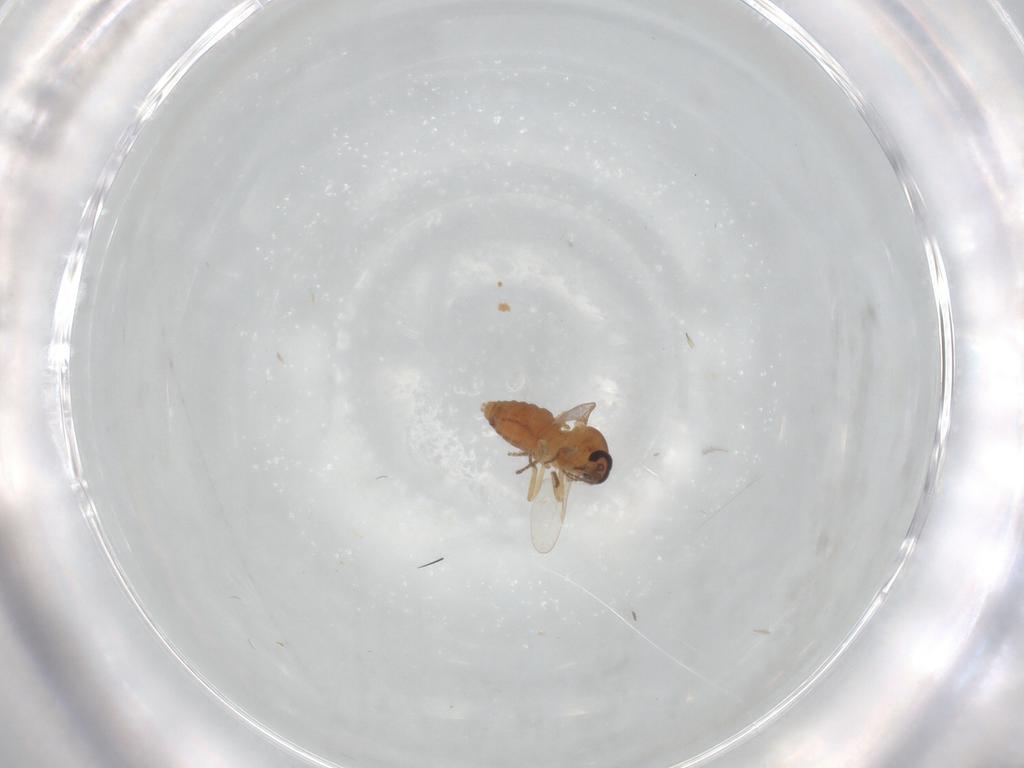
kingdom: Animalia
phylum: Arthropoda
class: Insecta
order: Diptera
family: Ceratopogonidae
